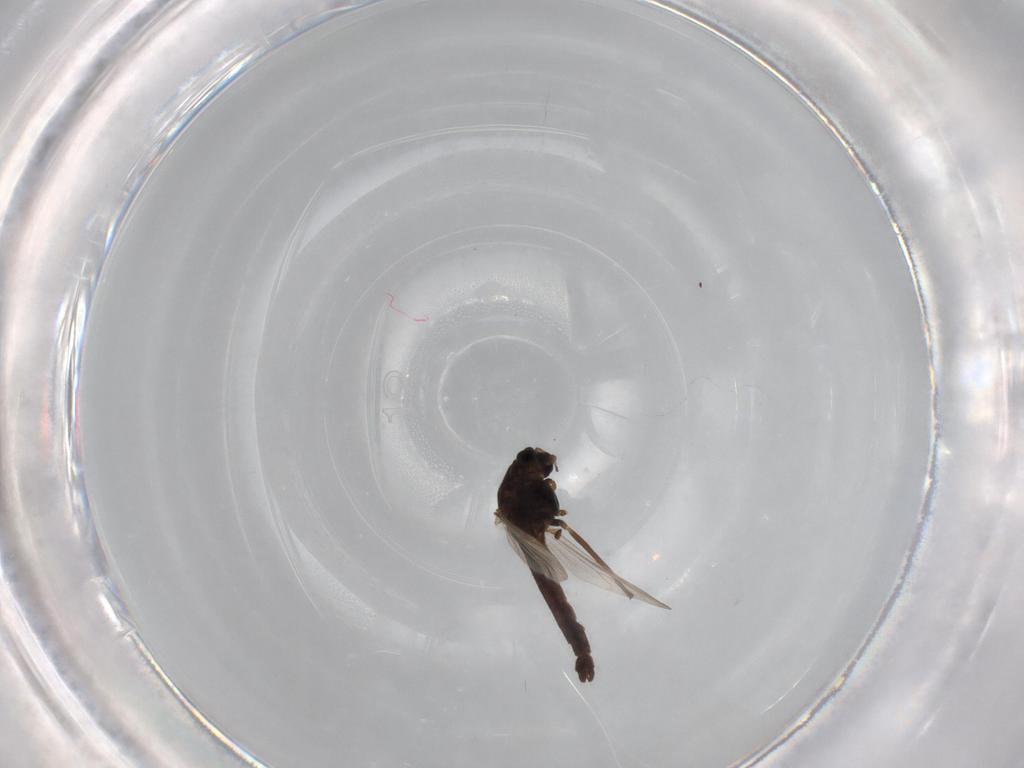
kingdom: Animalia
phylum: Arthropoda
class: Insecta
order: Diptera
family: Chironomidae
